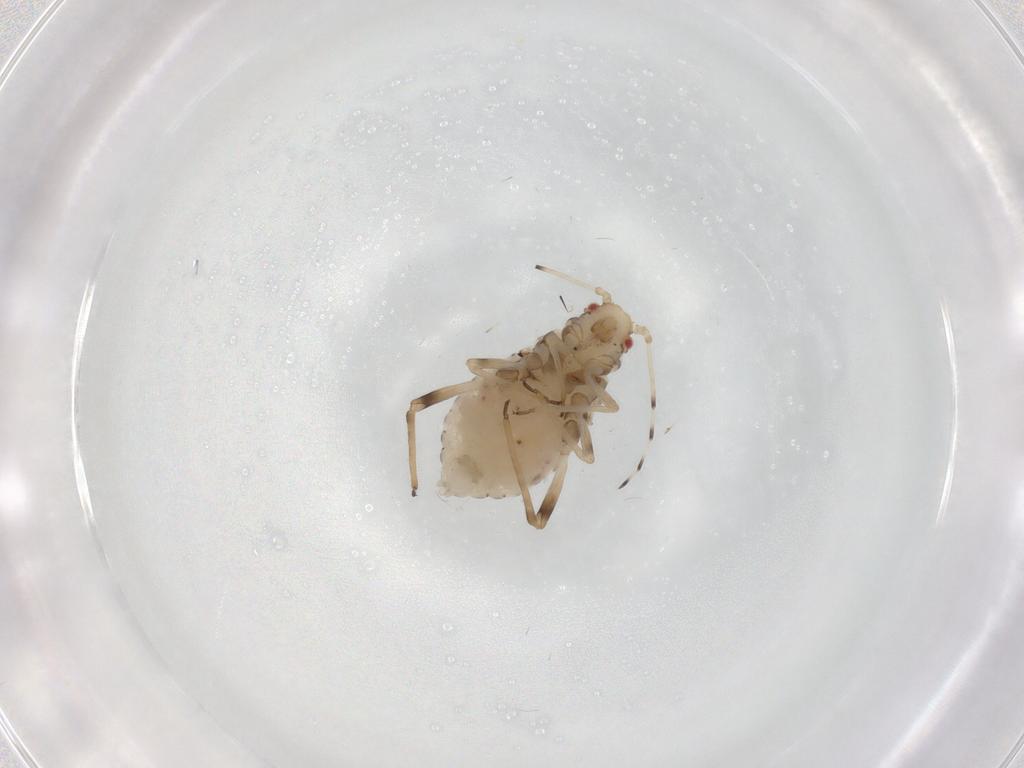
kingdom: Animalia
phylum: Arthropoda
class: Insecta
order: Hemiptera
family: Aphididae
